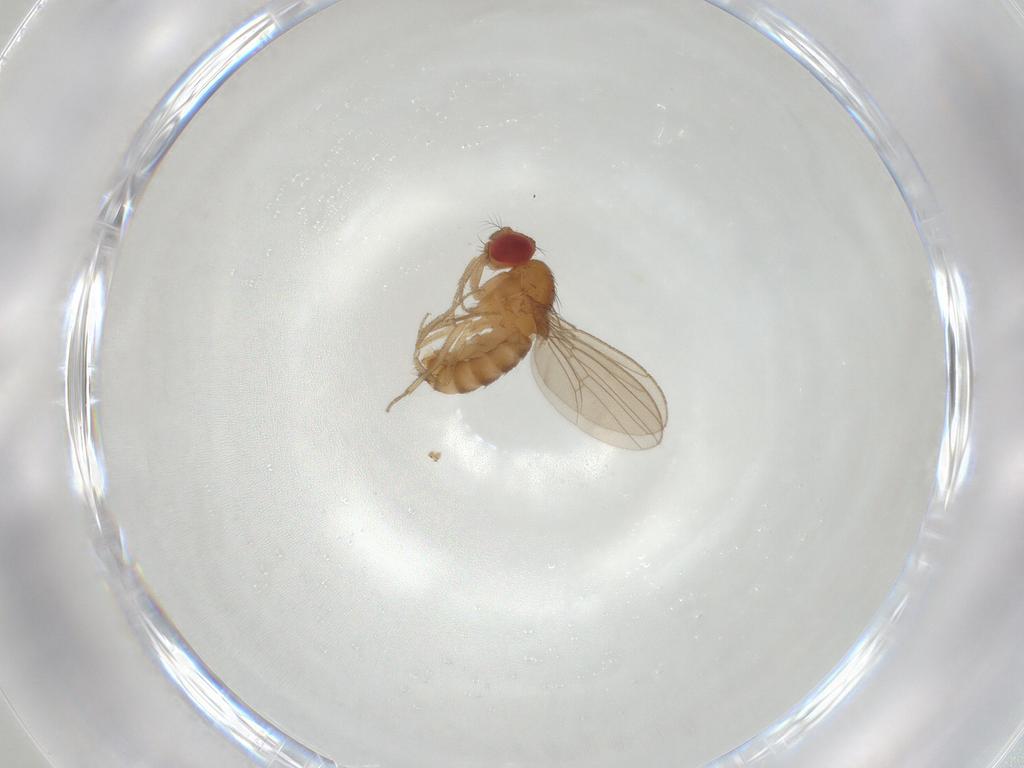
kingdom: Animalia
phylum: Arthropoda
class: Insecta
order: Diptera
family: Drosophilidae
